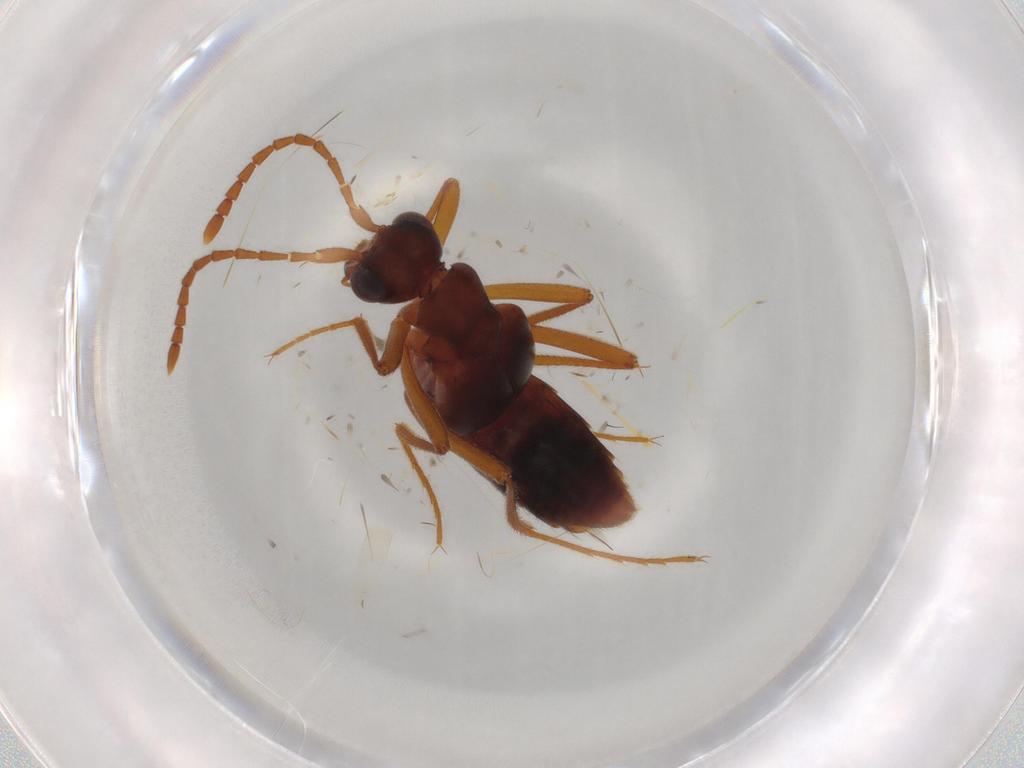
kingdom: Animalia
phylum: Arthropoda
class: Insecta
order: Coleoptera
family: Staphylinidae
